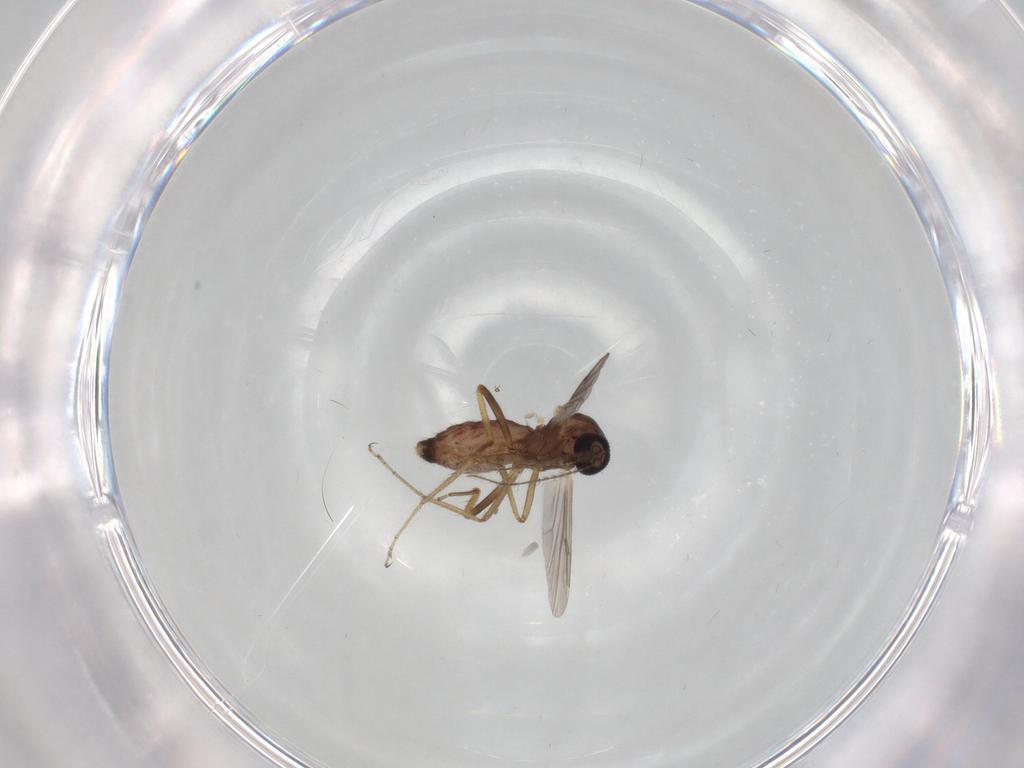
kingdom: Animalia
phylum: Arthropoda
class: Insecta
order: Diptera
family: Ceratopogonidae
